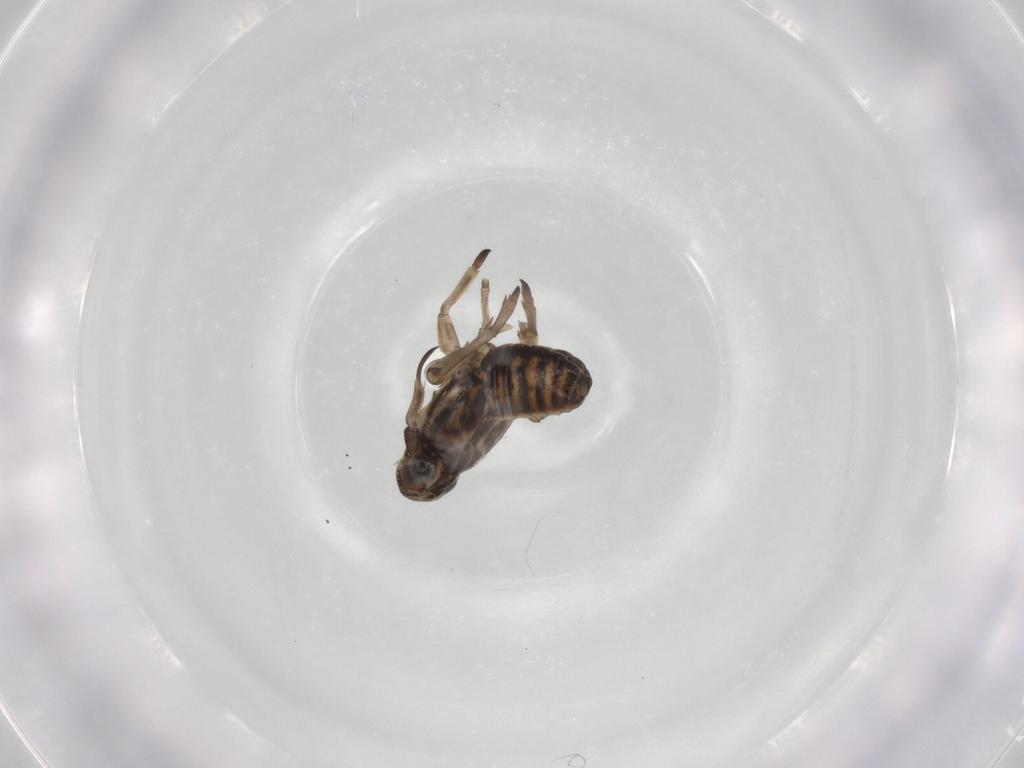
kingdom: Animalia
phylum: Arthropoda
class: Insecta
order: Hemiptera
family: Delphacidae
